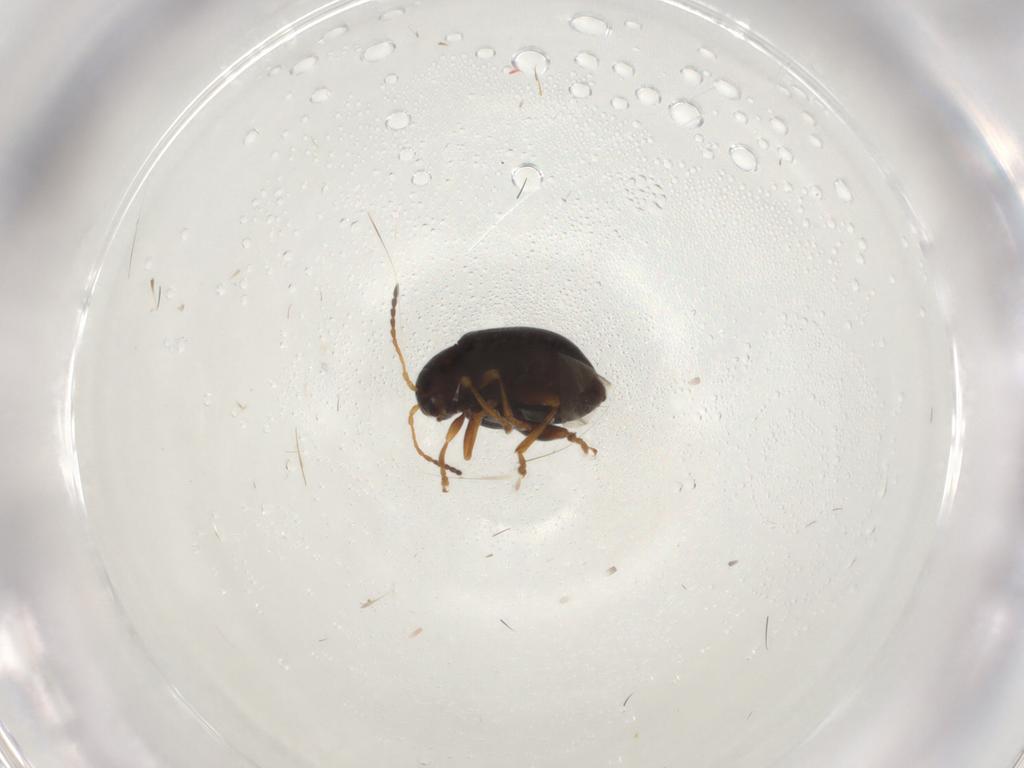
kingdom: Animalia
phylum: Arthropoda
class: Insecta
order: Coleoptera
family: Chrysomelidae
